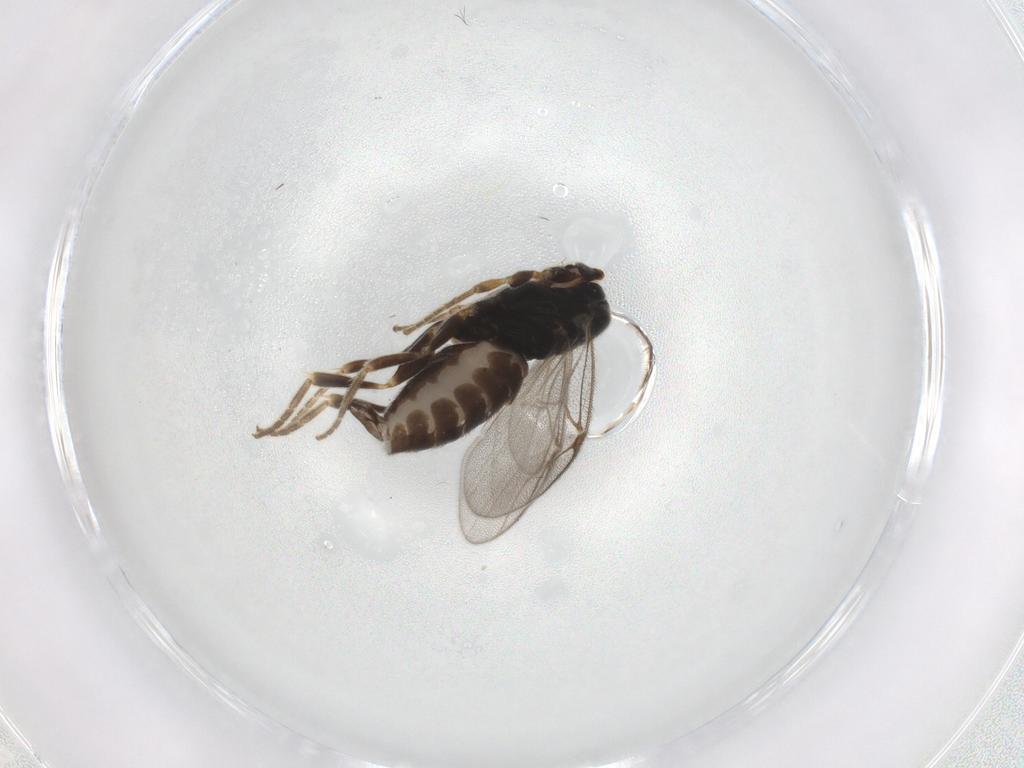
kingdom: Animalia
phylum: Arthropoda
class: Insecta
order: Hymenoptera
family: Dryinidae
